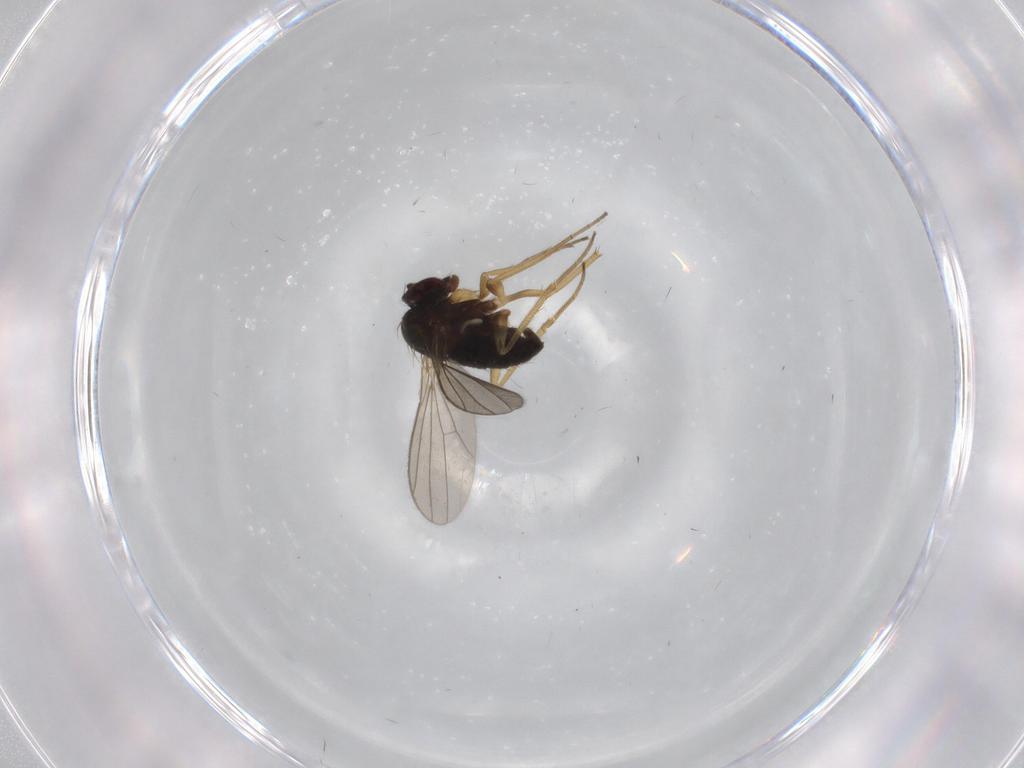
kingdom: Animalia
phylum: Arthropoda
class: Insecta
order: Diptera
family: Dolichopodidae
